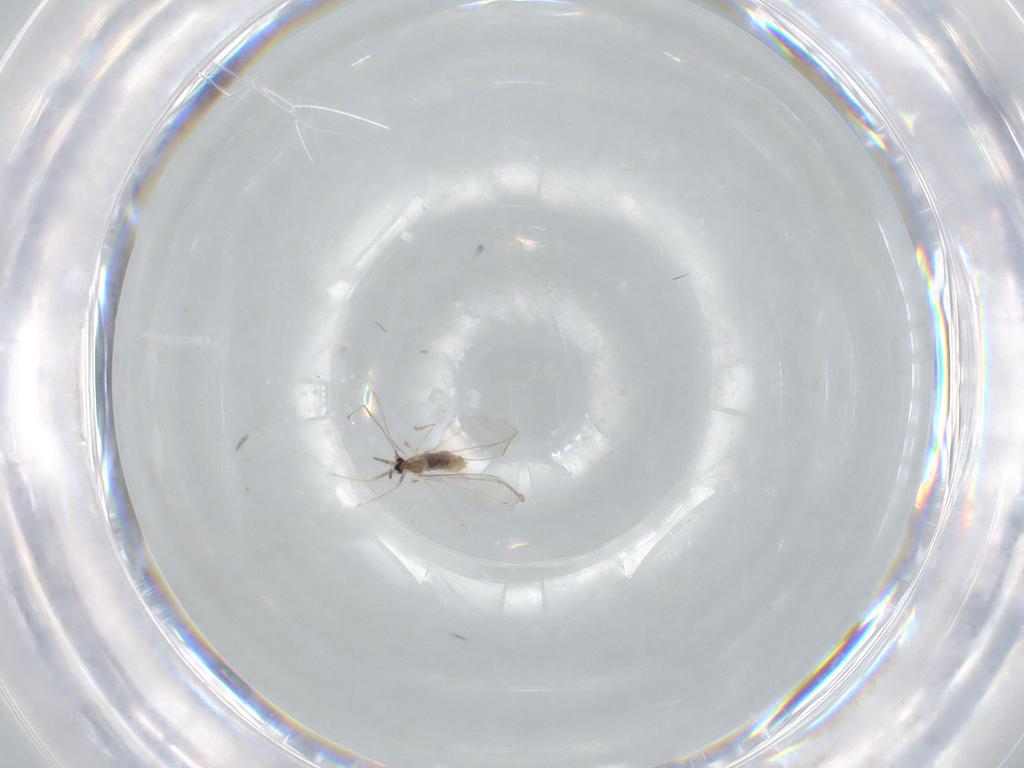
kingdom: Animalia
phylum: Arthropoda
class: Insecta
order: Diptera
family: Cecidomyiidae
